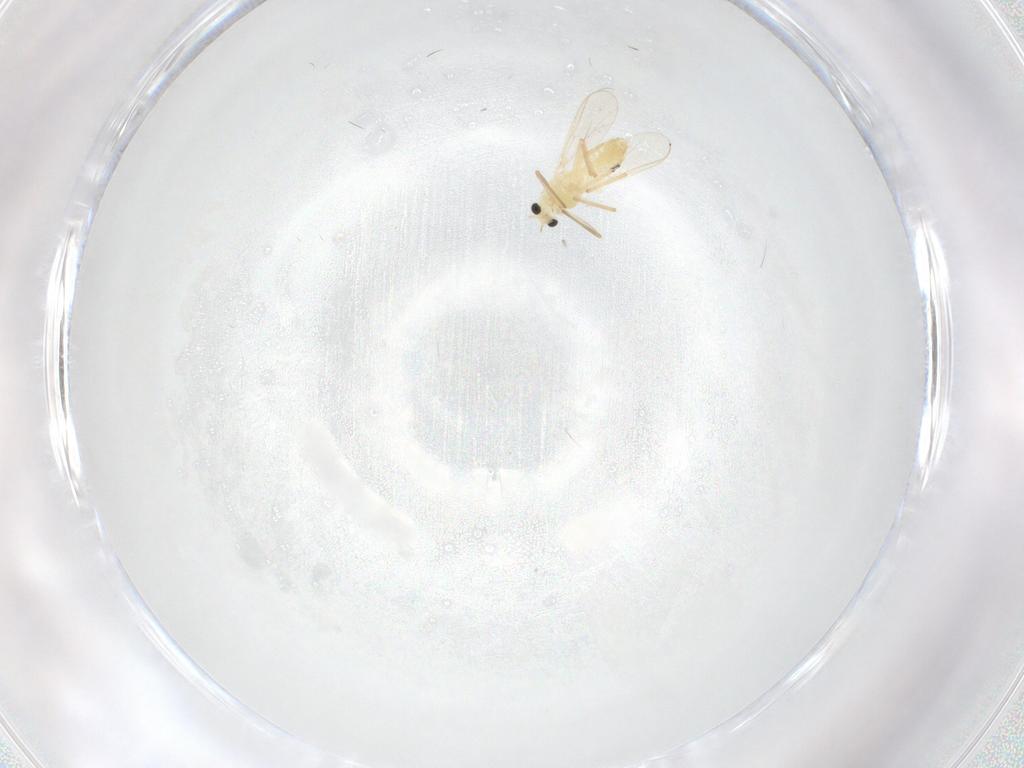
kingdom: Animalia
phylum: Arthropoda
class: Insecta
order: Diptera
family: Chironomidae
